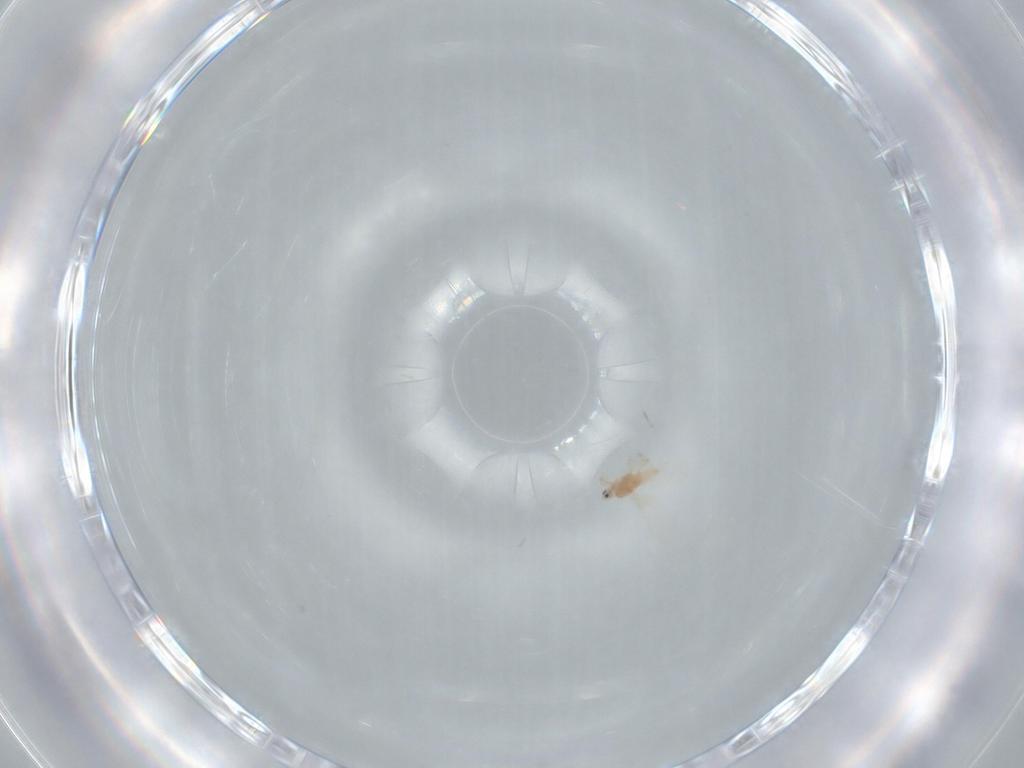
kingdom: Animalia
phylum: Arthropoda
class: Insecta
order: Hemiptera
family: Aleyrodidae
